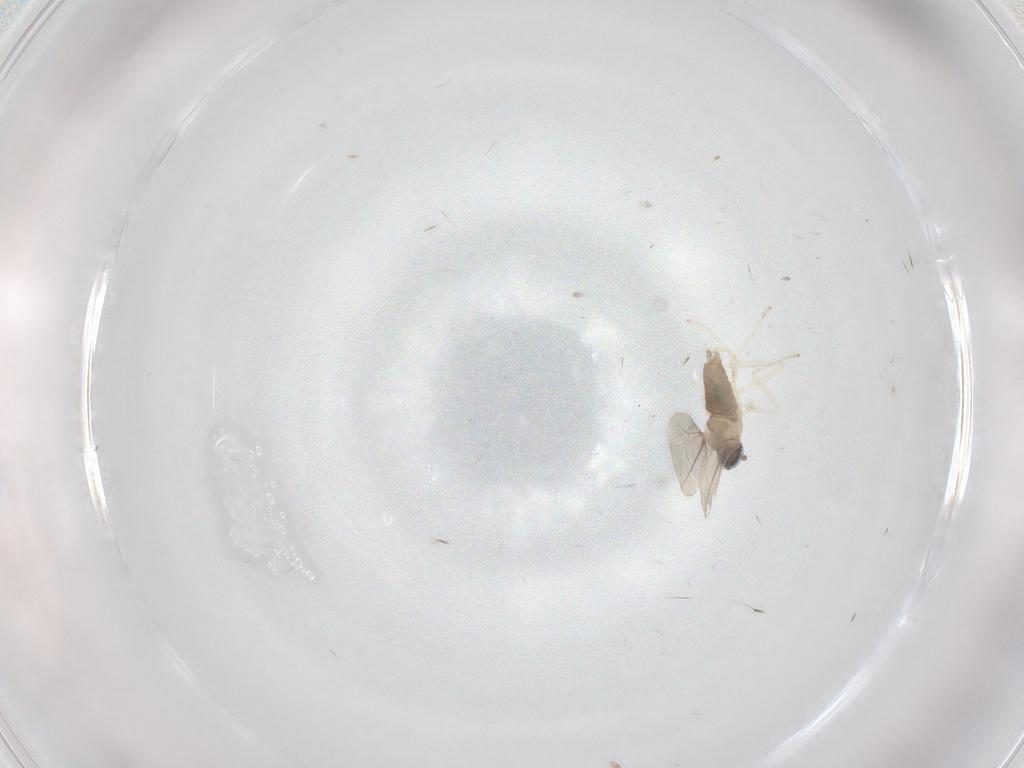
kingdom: Animalia
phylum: Arthropoda
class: Insecta
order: Diptera
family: Cecidomyiidae
